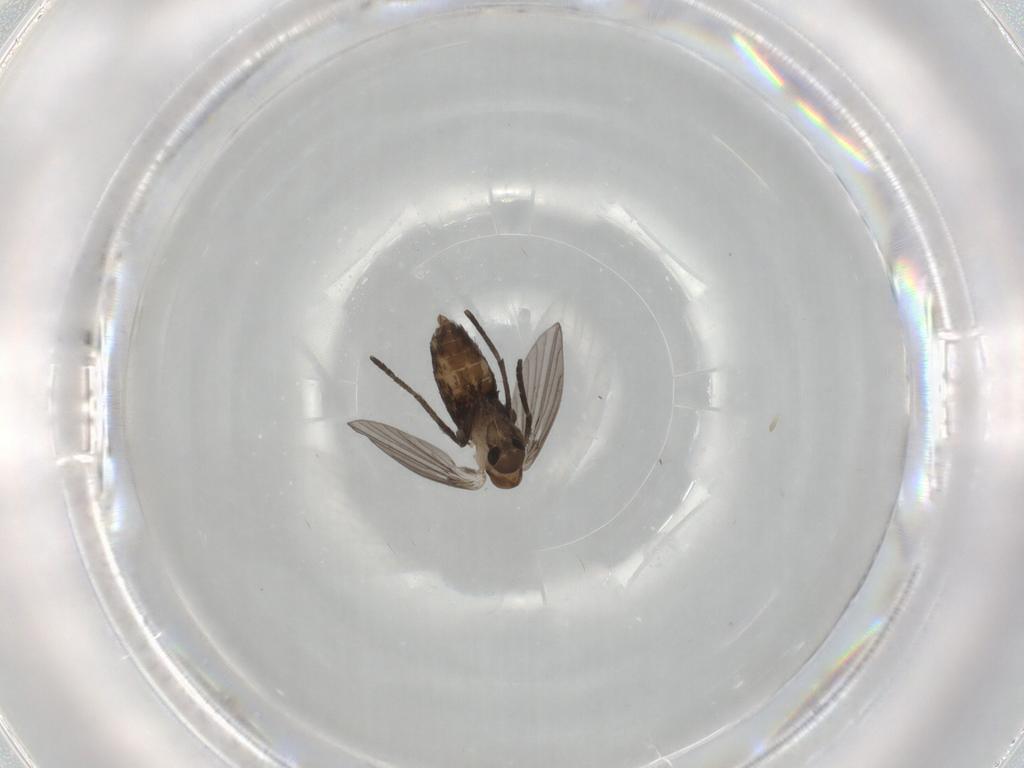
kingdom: Animalia
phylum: Arthropoda
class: Insecta
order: Diptera
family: Psychodidae
